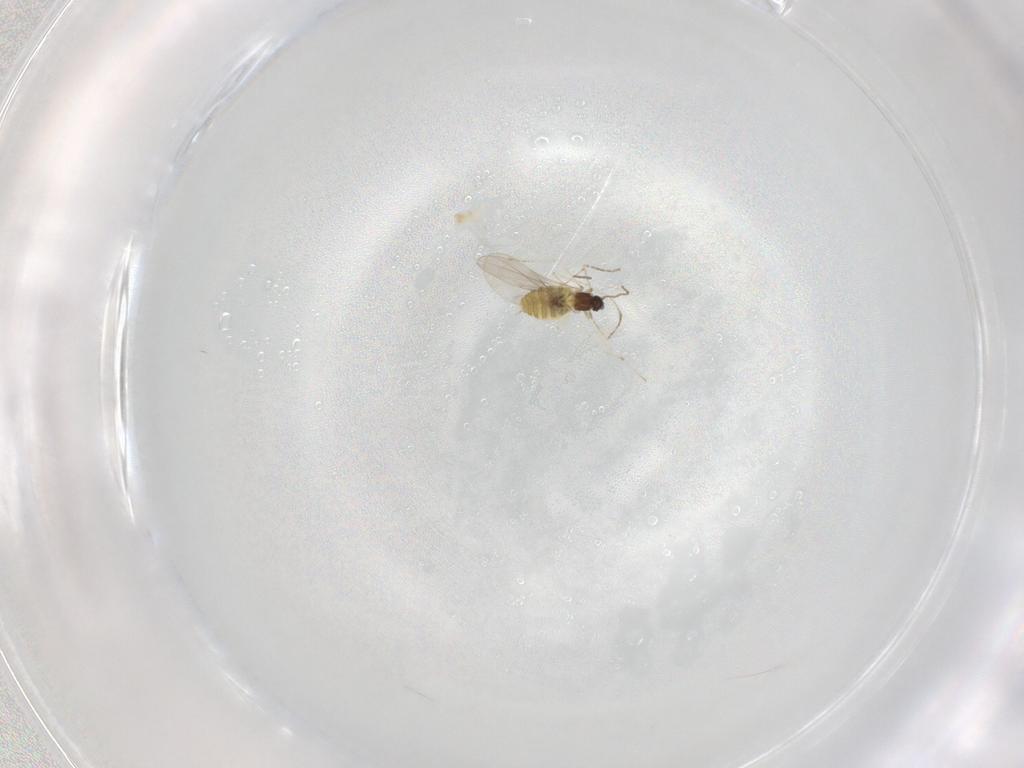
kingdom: Animalia
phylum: Arthropoda
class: Insecta
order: Diptera
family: Cecidomyiidae
